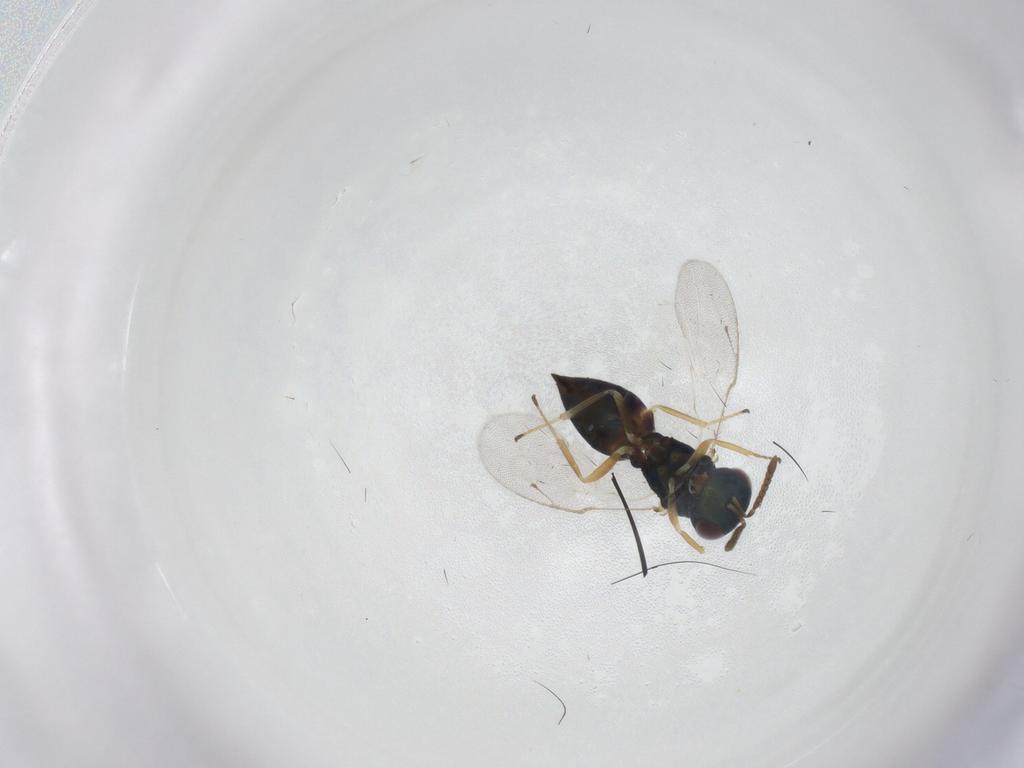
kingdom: Animalia
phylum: Arthropoda
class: Insecta
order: Hymenoptera
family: Pteromalidae
